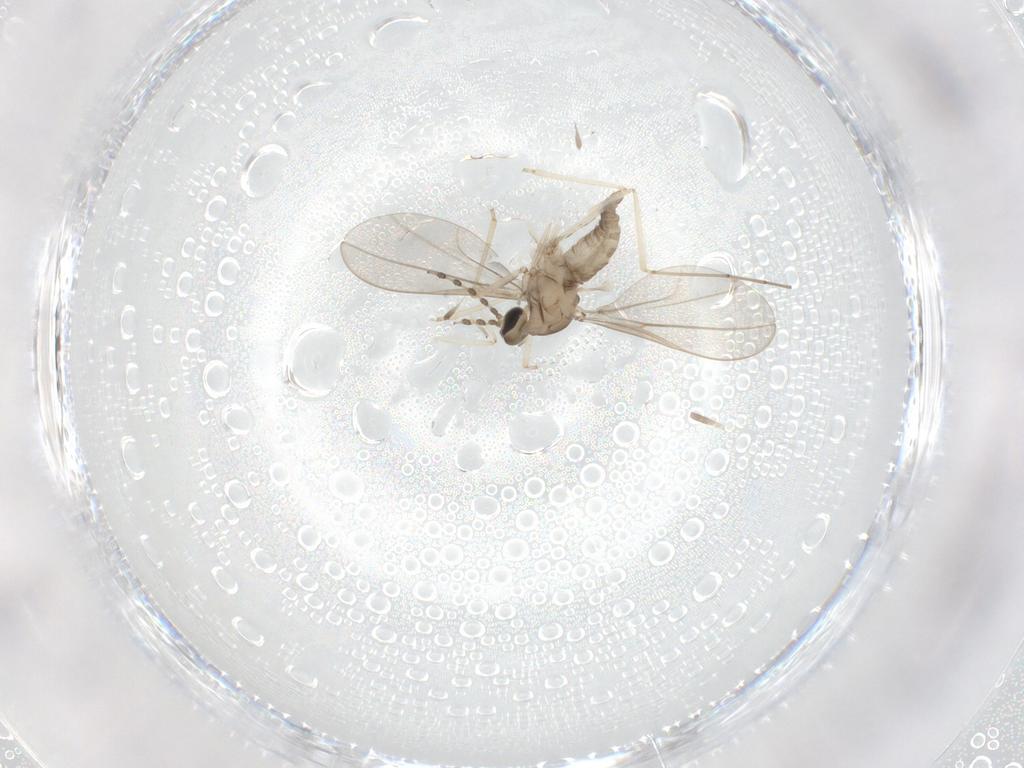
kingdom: Animalia
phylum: Arthropoda
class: Insecta
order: Diptera
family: Cecidomyiidae
